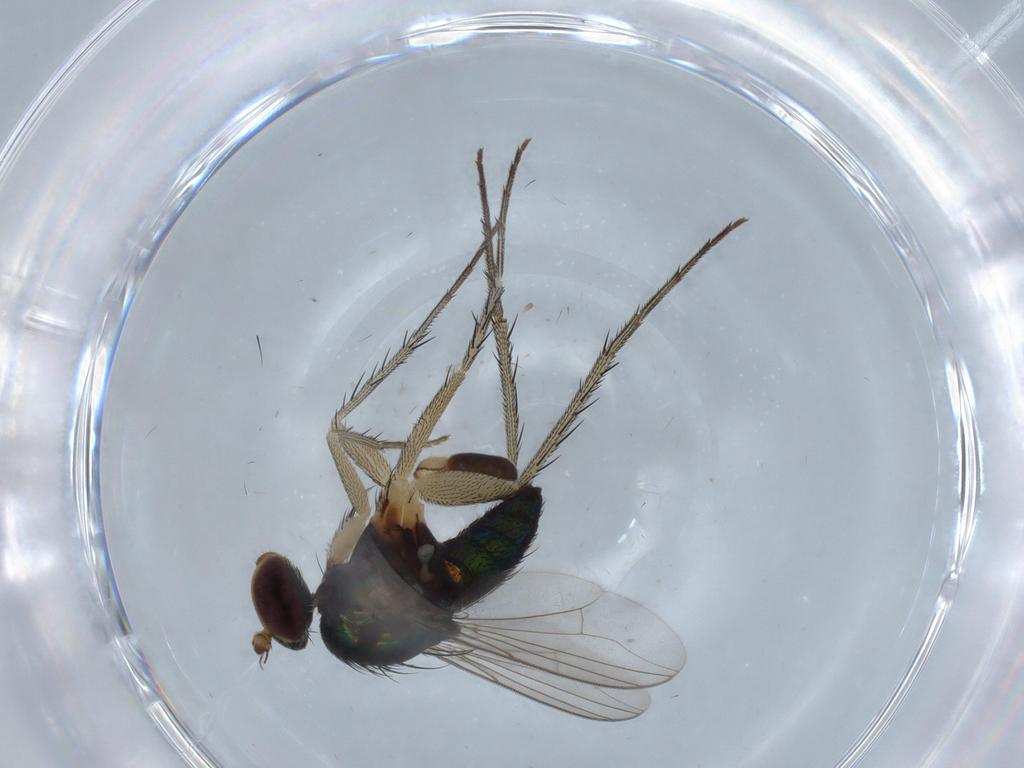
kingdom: Animalia
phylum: Arthropoda
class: Insecta
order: Diptera
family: Dolichopodidae
